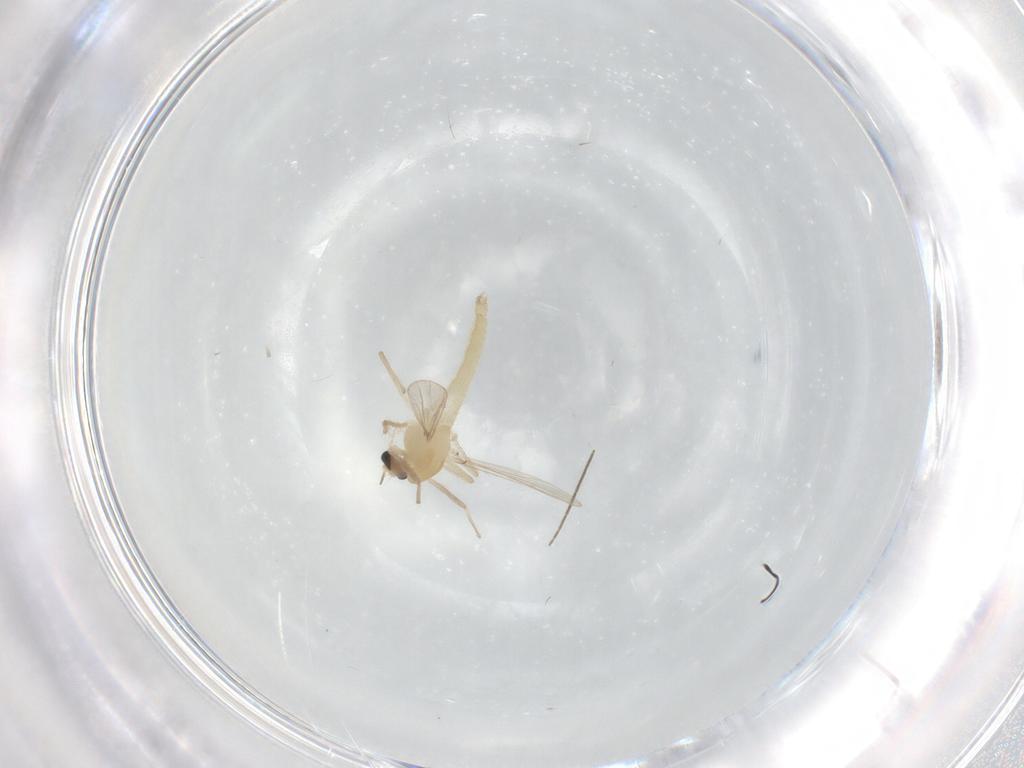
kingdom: Animalia
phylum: Arthropoda
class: Insecta
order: Diptera
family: Chironomidae
